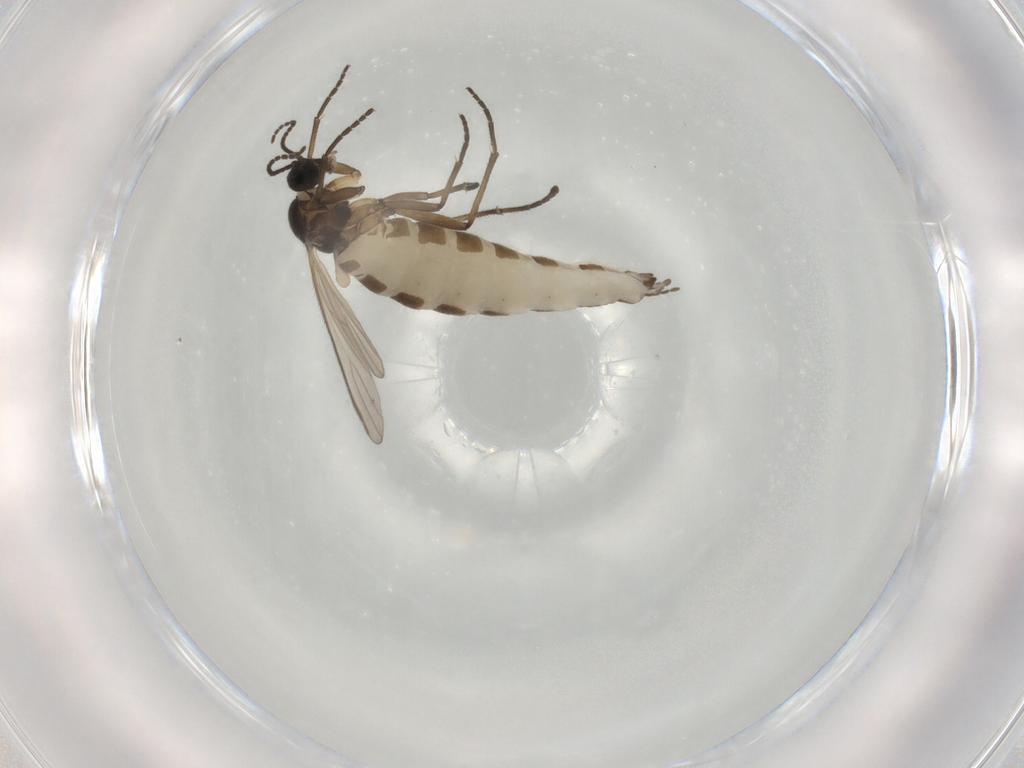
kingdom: Animalia
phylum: Arthropoda
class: Insecta
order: Diptera
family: Sciaridae
